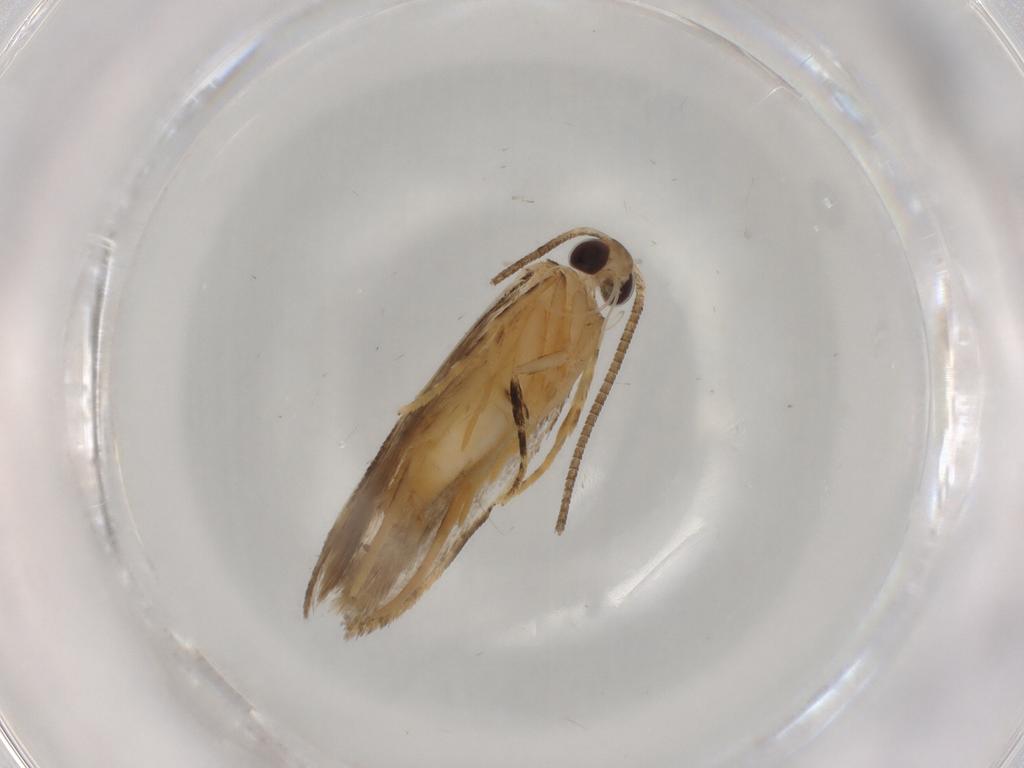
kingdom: Animalia
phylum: Arthropoda
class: Insecta
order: Lepidoptera
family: Autostichidae
